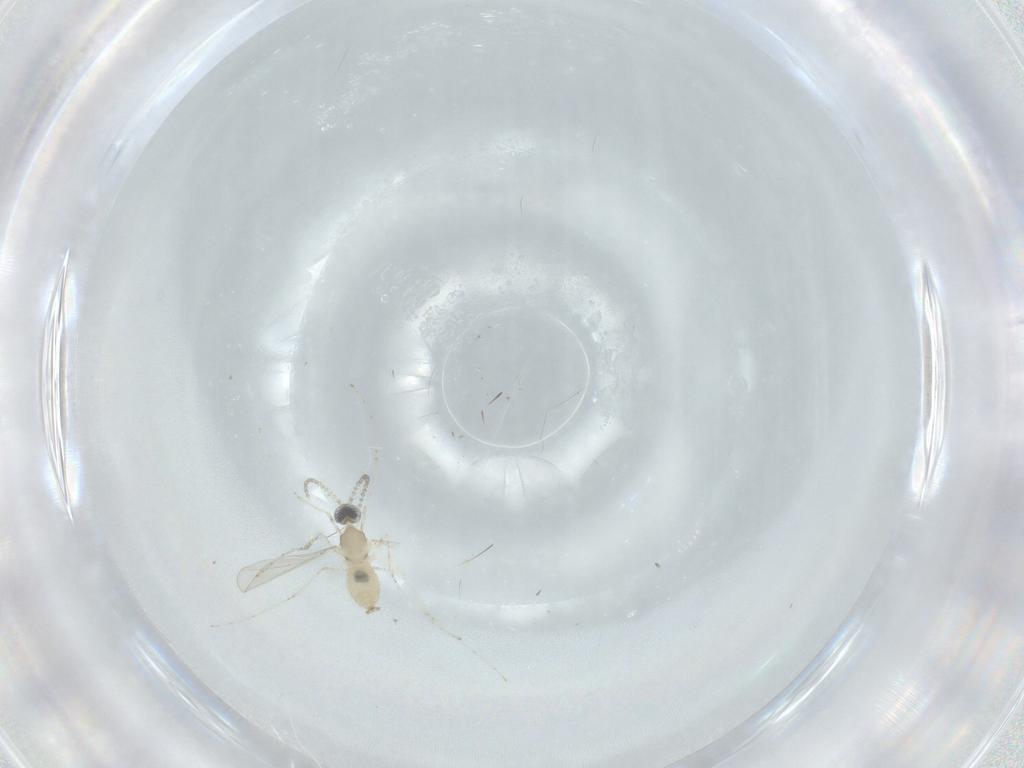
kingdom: Animalia
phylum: Arthropoda
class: Insecta
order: Diptera
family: Cecidomyiidae
